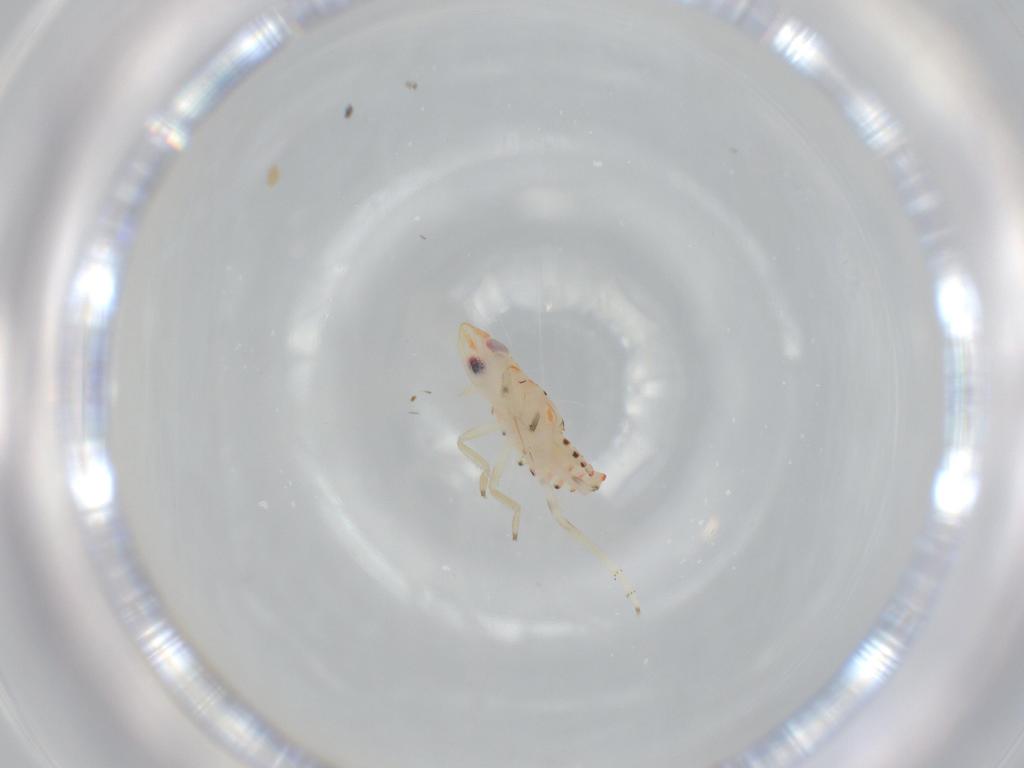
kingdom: Animalia
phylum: Arthropoda
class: Insecta
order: Hemiptera
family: Tropiduchidae
